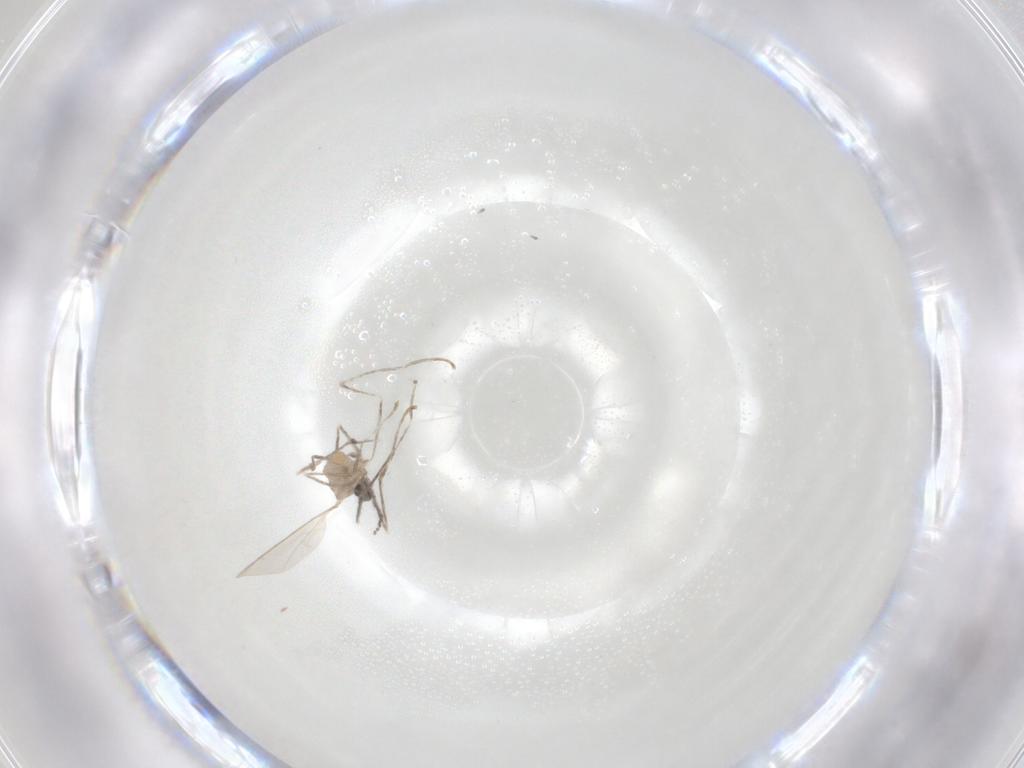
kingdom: Animalia
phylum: Arthropoda
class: Insecta
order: Diptera
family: Cecidomyiidae
